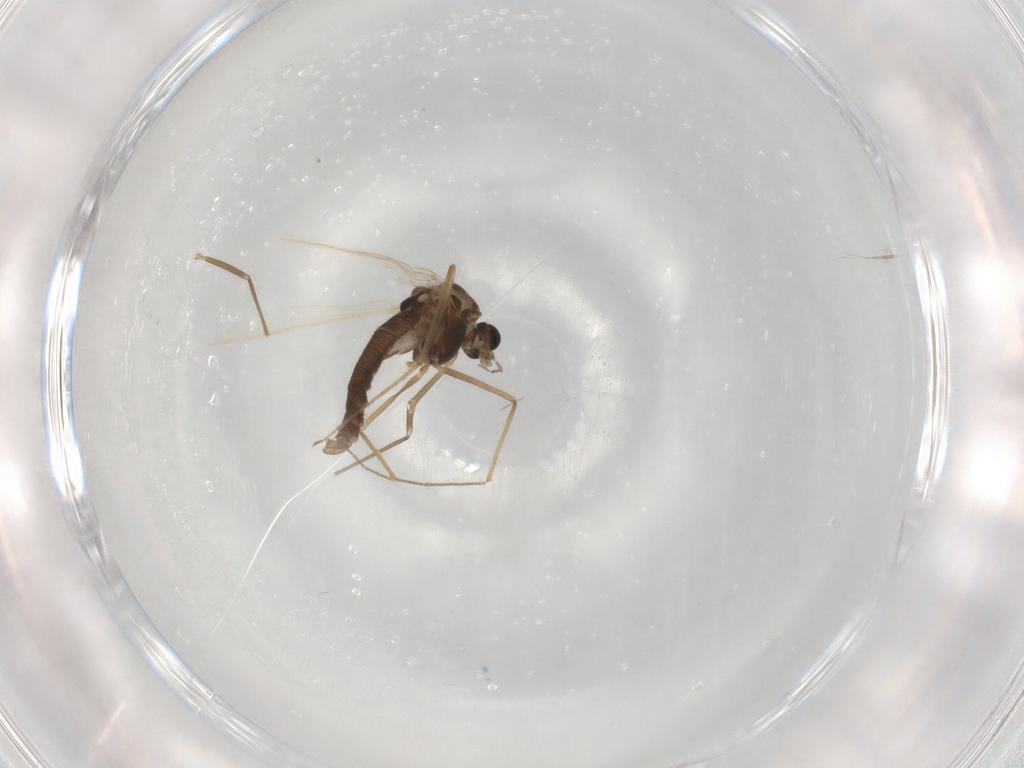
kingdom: Animalia
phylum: Arthropoda
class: Insecta
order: Diptera
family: Chironomidae
